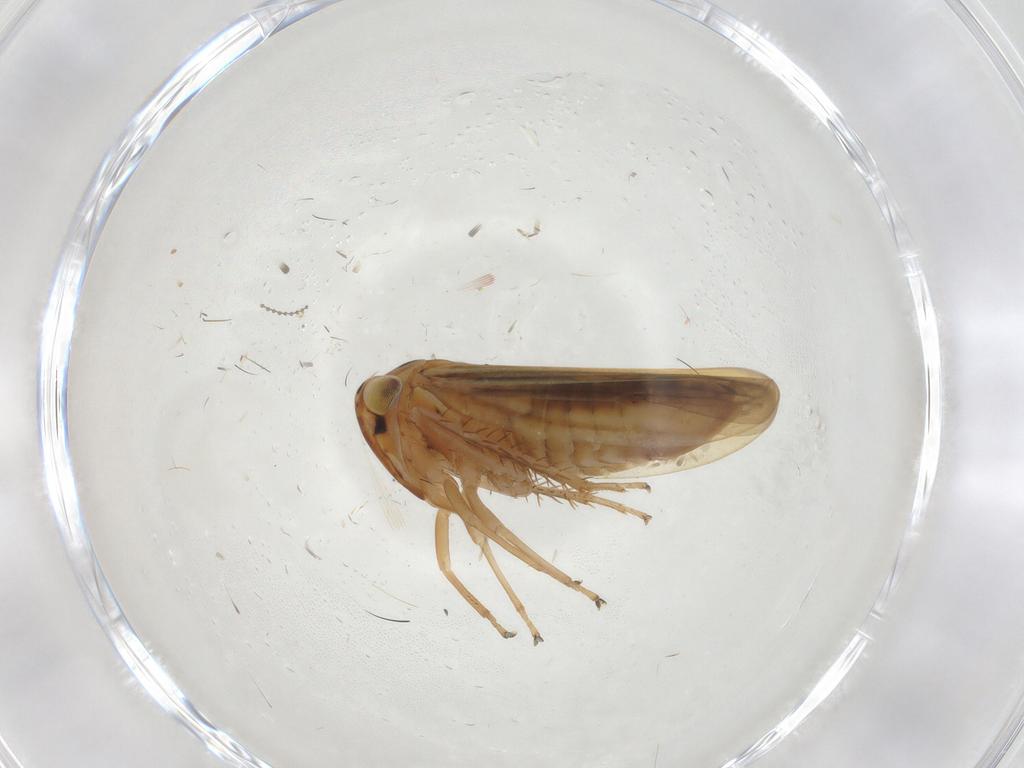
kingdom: Animalia
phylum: Arthropoda
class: Insecta
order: Hemiptera
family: Cicadellidae
